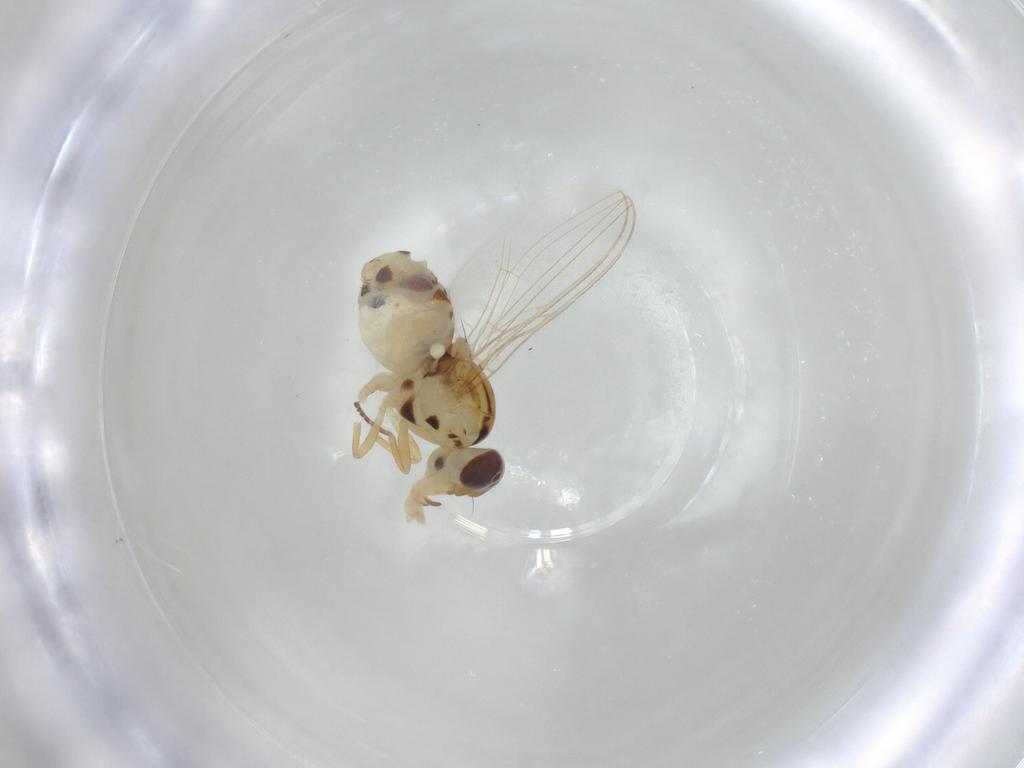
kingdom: Animalia
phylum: Arthropoda
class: Insecta
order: Diptera
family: Asteiidae
